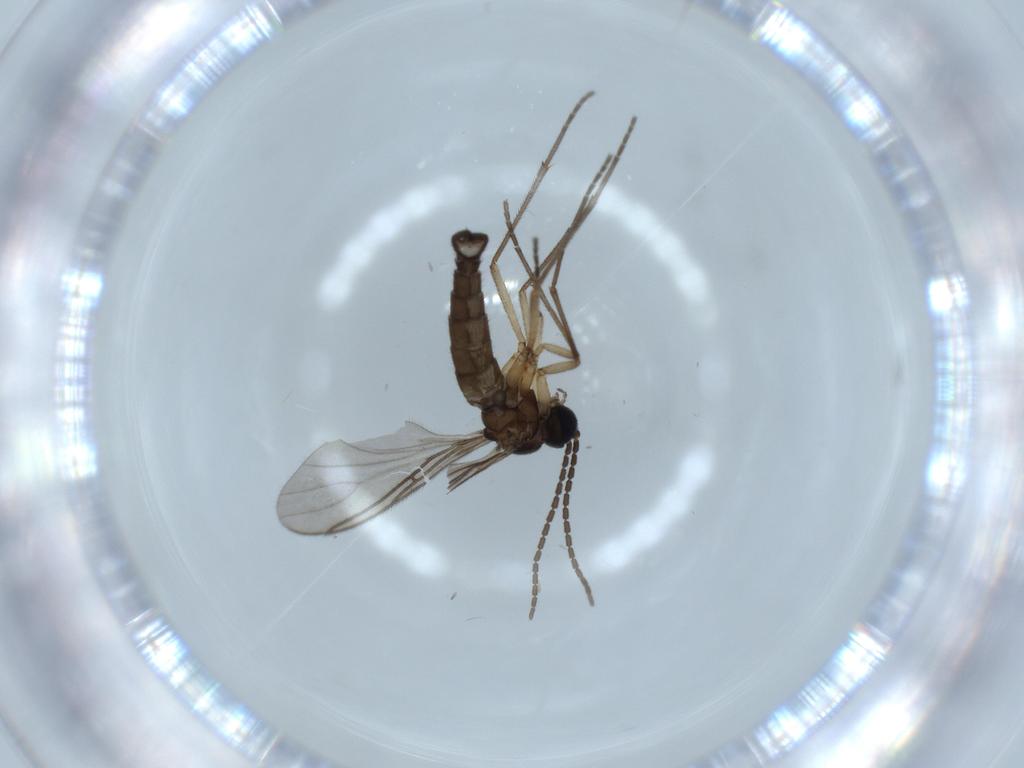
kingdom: Animalia
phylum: Arthropoda
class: Insecta
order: Diptera
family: Sciaridae
